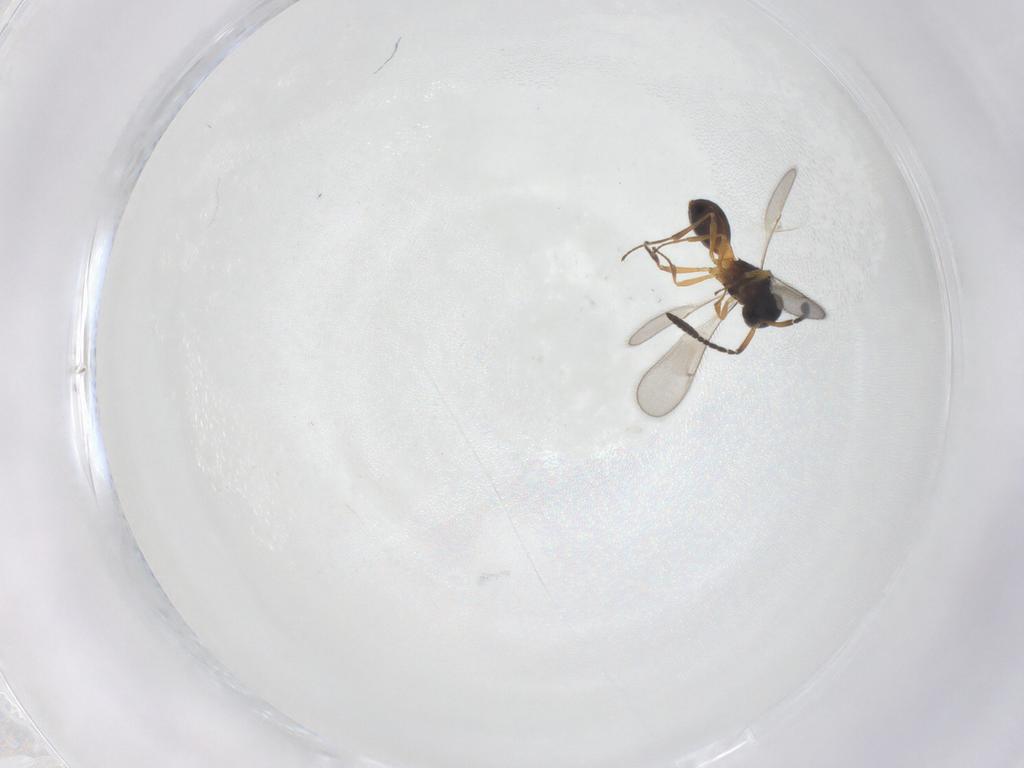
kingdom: Animalia
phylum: Arthropoda
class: Insecta
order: Hymenoptera
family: Scelionidae
